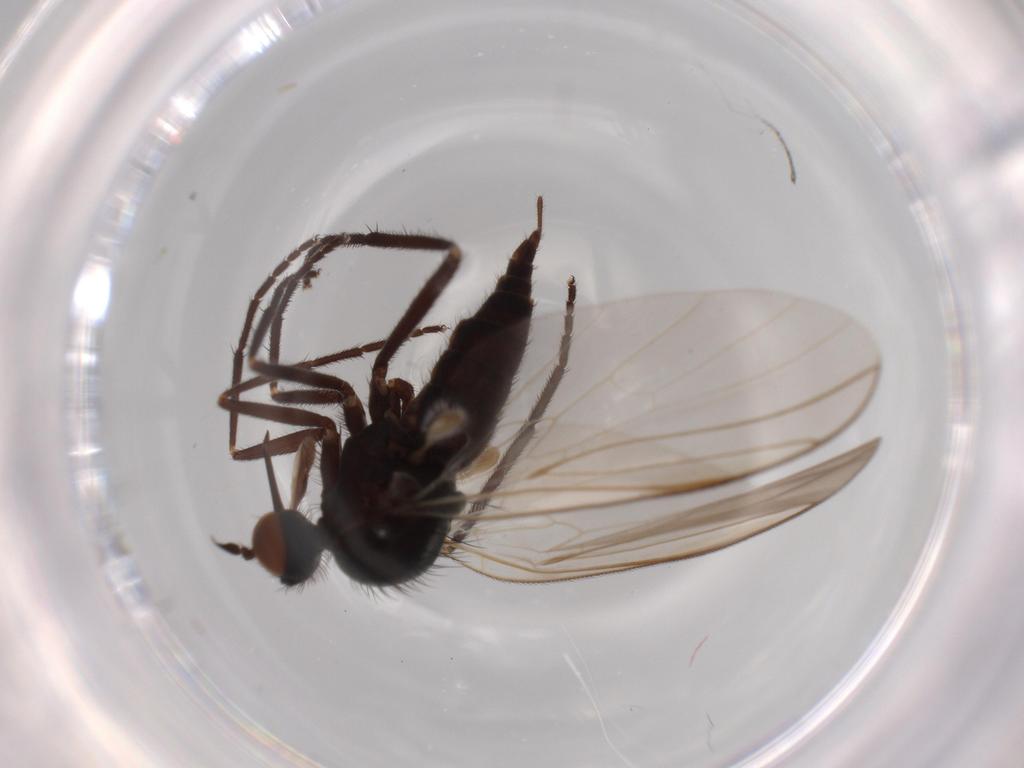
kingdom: Animalia
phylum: Arthropoda
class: Insecta
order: Diptera
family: Empididae
